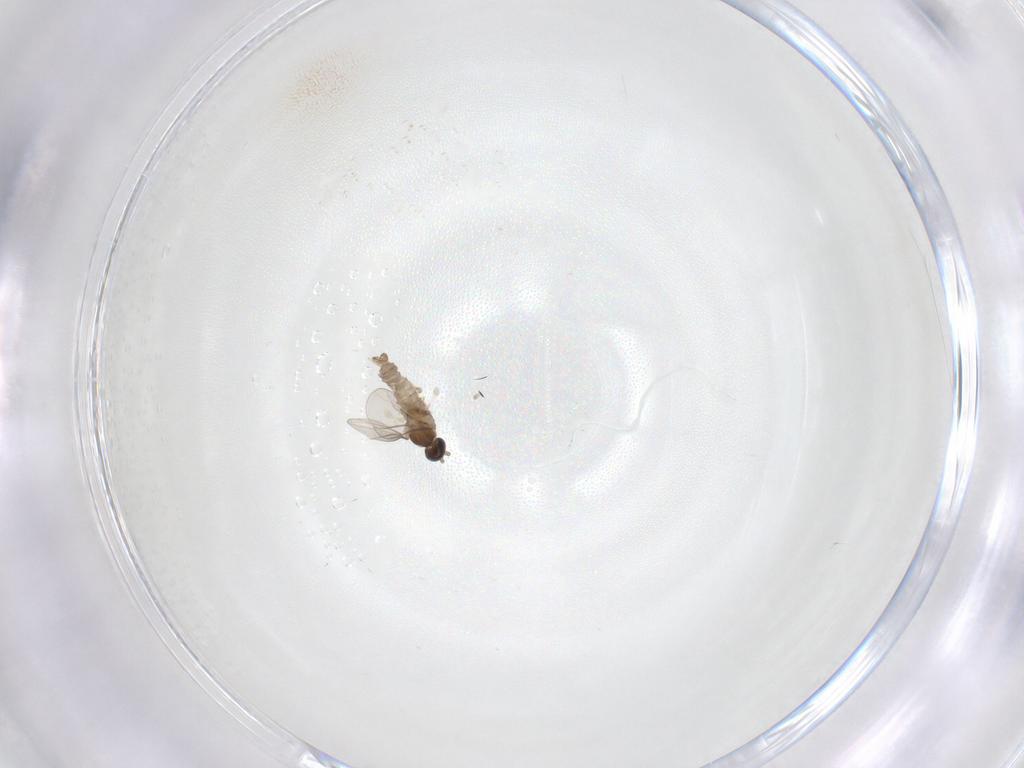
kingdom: Animalia
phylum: Arthropoda
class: Insecta
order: Diptera
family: Cecidomyiidae
